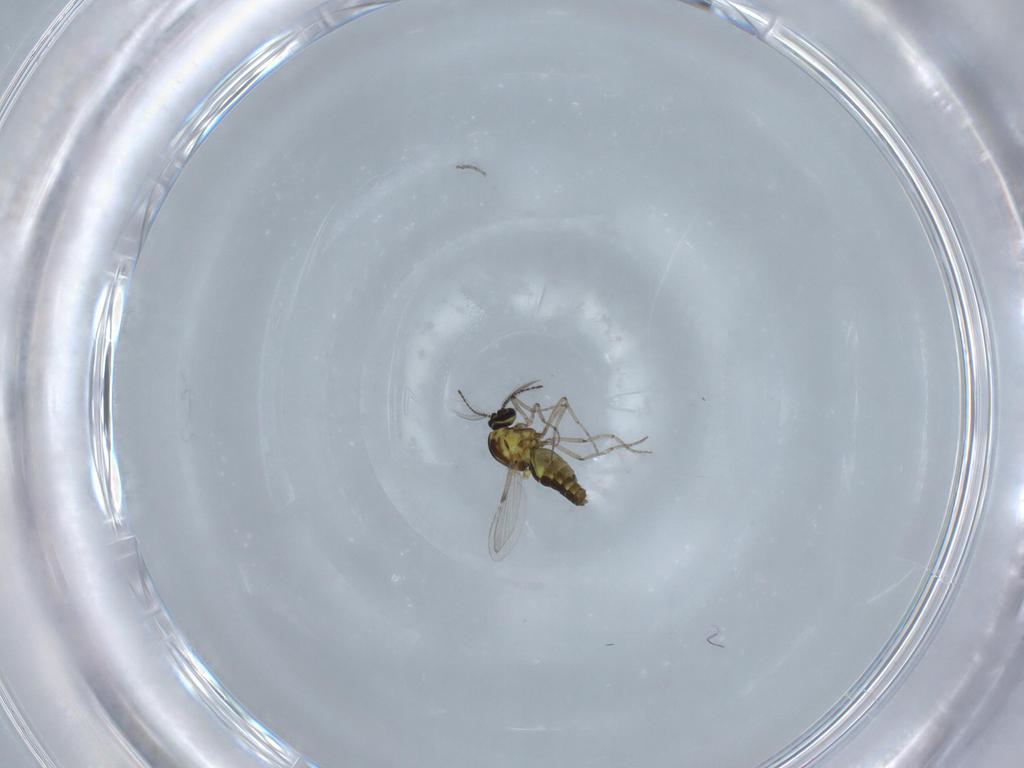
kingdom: Animalia
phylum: Arthropoda
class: Insecta
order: Diptera
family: Ceratopogonidae
